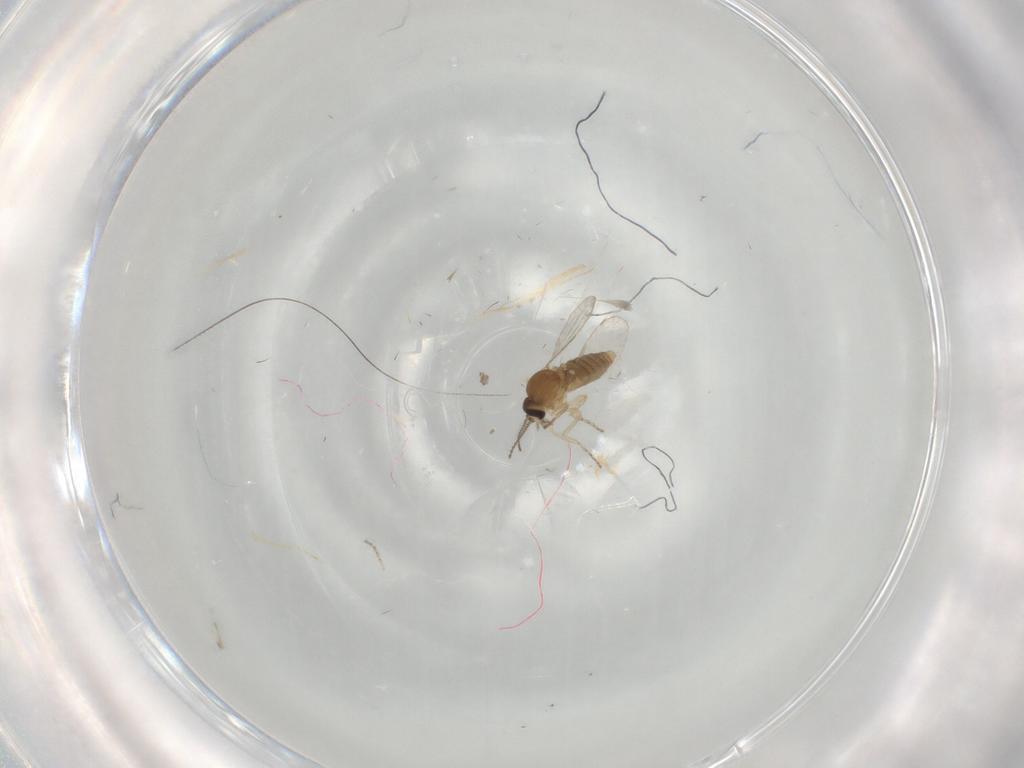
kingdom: Animalia
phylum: Arthropoda
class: Insecta
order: Diptera
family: Ceratopogonidae
